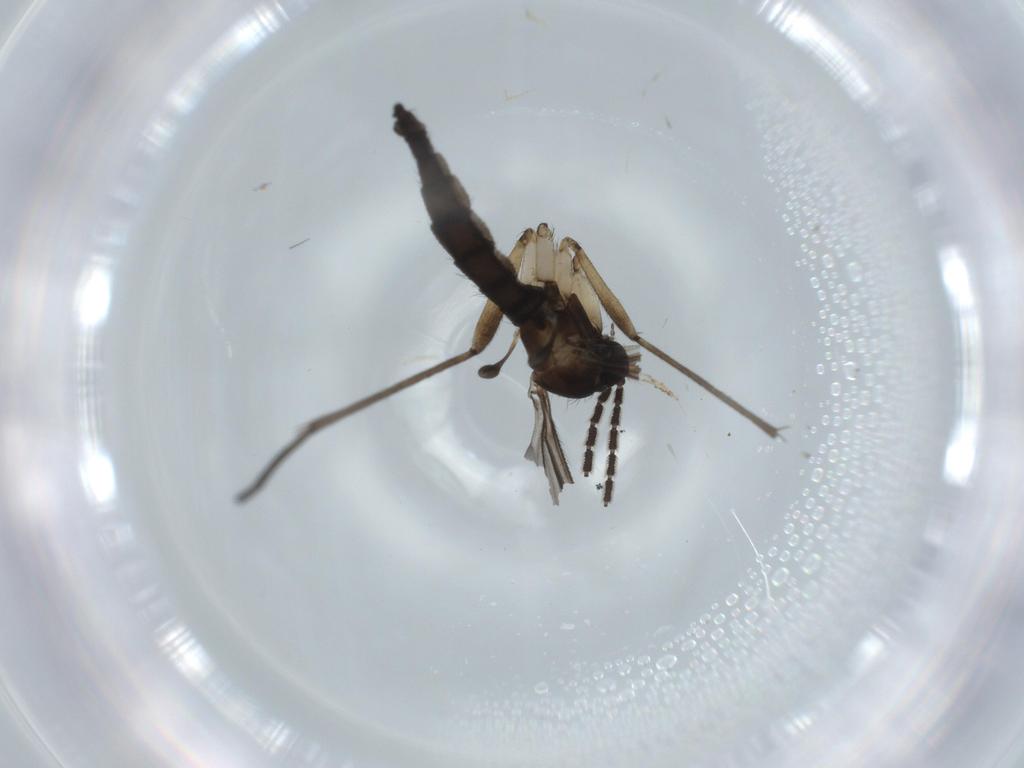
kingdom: Animalia
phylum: Arthropoda
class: Insecta
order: Diptera
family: Sciaridae
